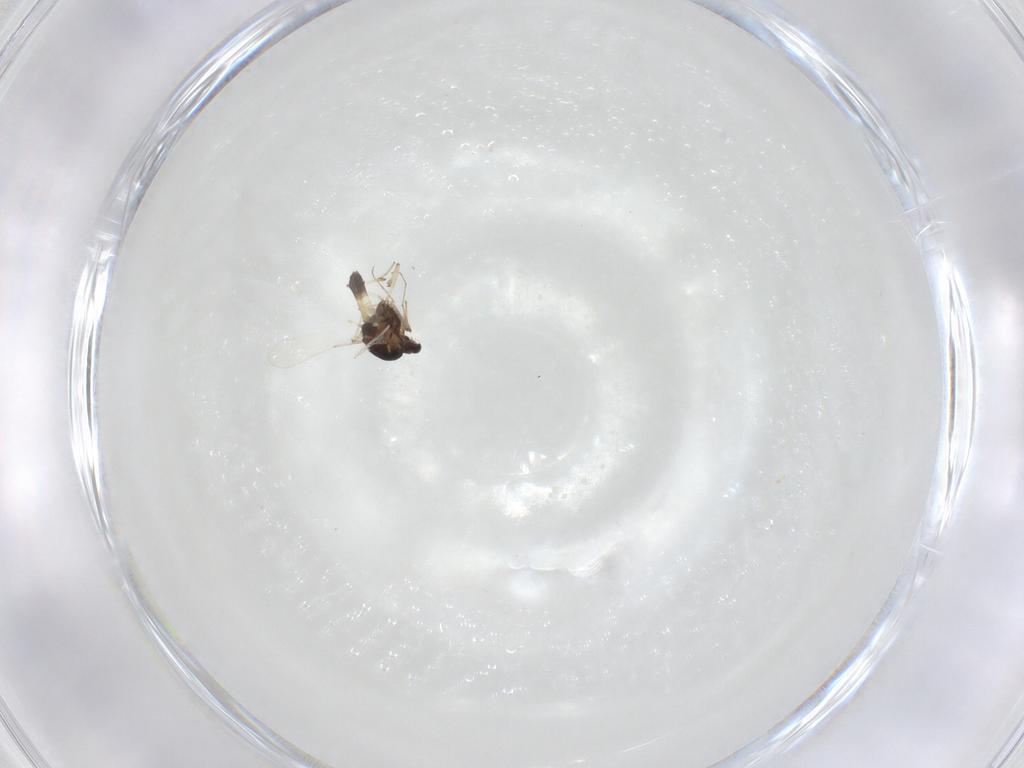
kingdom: Animalia
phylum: Arthropoda
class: Insecta
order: Diptera
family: Chironomidae
